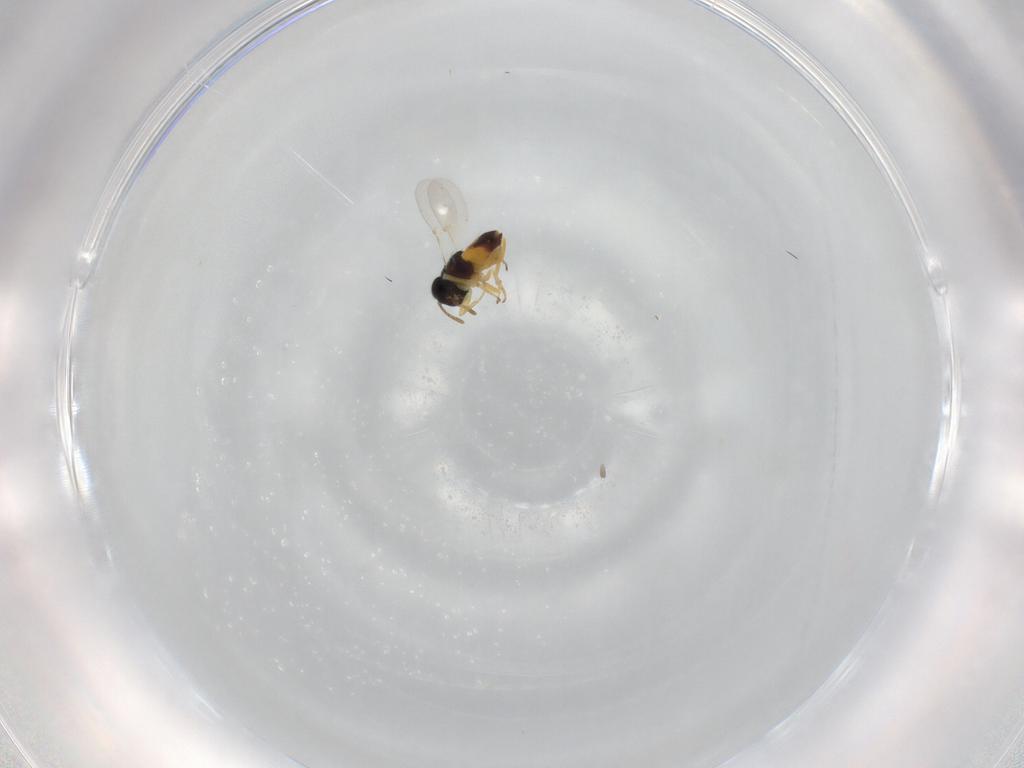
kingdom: Animalia
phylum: Arthropoda
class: Insecta
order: Hymenoptera
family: Encyrtidae
